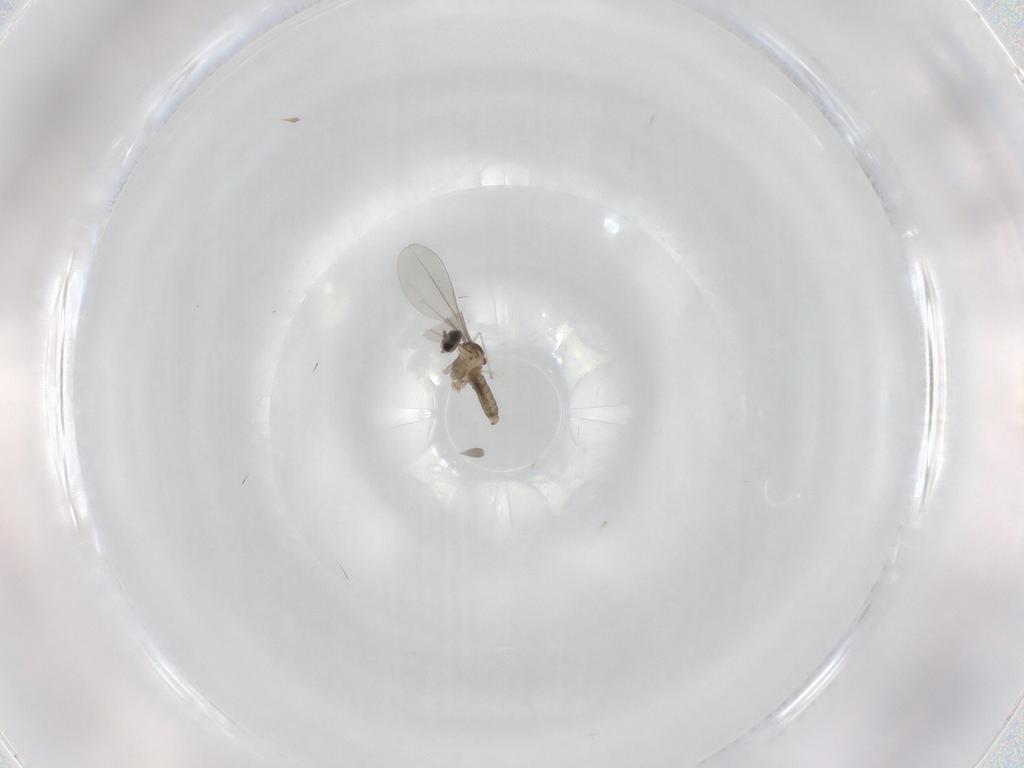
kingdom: Animalia
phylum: Arthropoda
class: Insecta
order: Diptera
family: Cecidomyiidae
